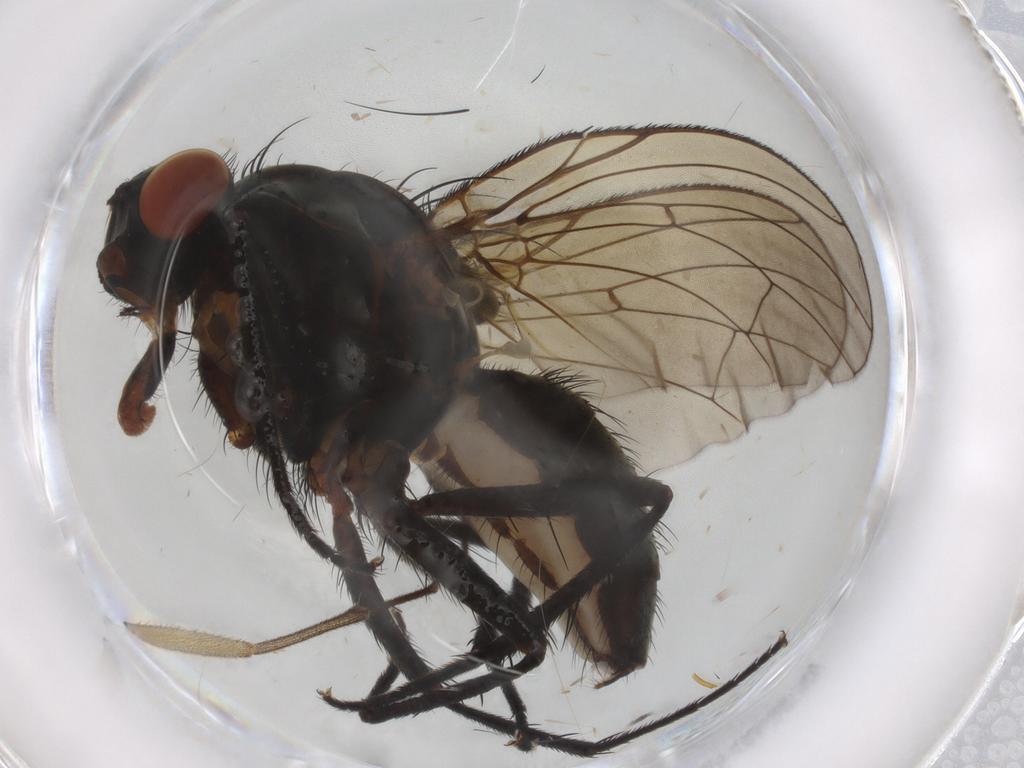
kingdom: Animalia
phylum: Arthropoda
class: Insecta
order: Diptera
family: Anthomyiidae
